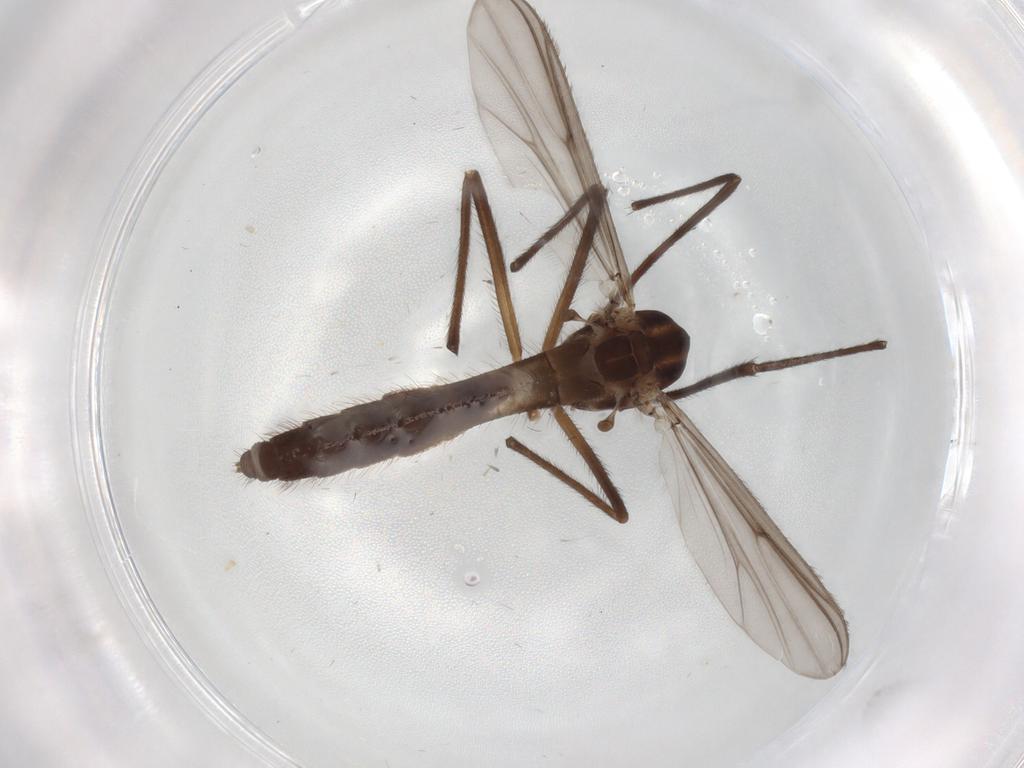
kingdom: Animalia
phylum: Arthropoda
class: Insecta
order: Diptera
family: Chironomidae
